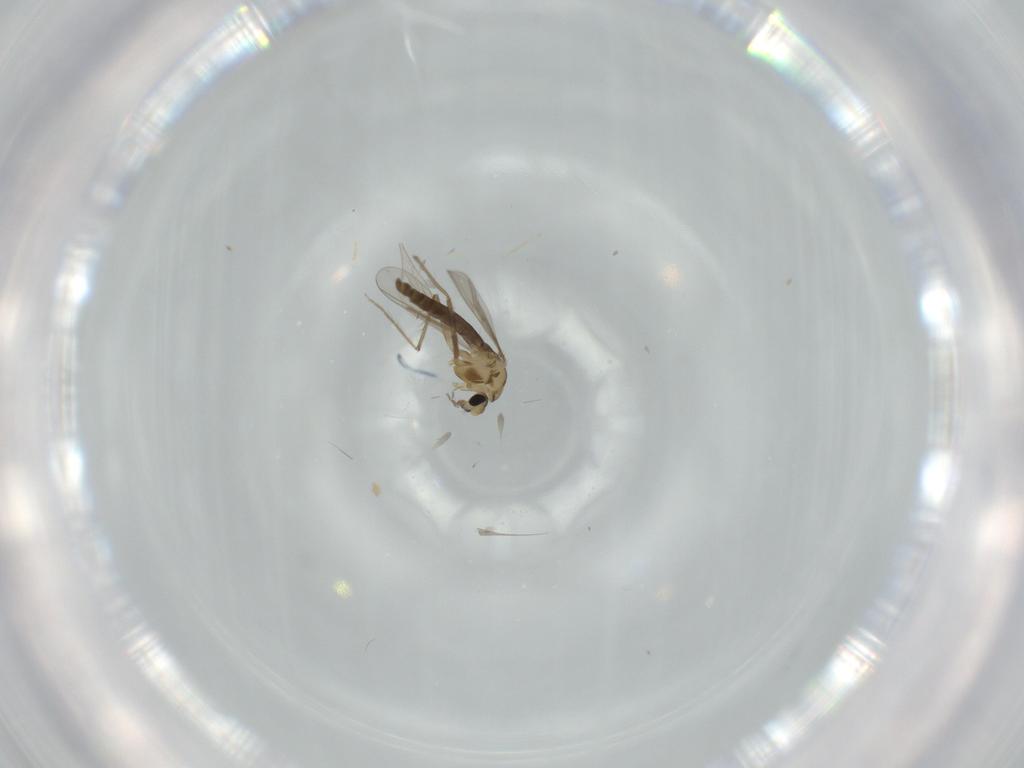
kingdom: Animalia
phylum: Arthropoda
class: Insecta
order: Diptera
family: Chironomidae
